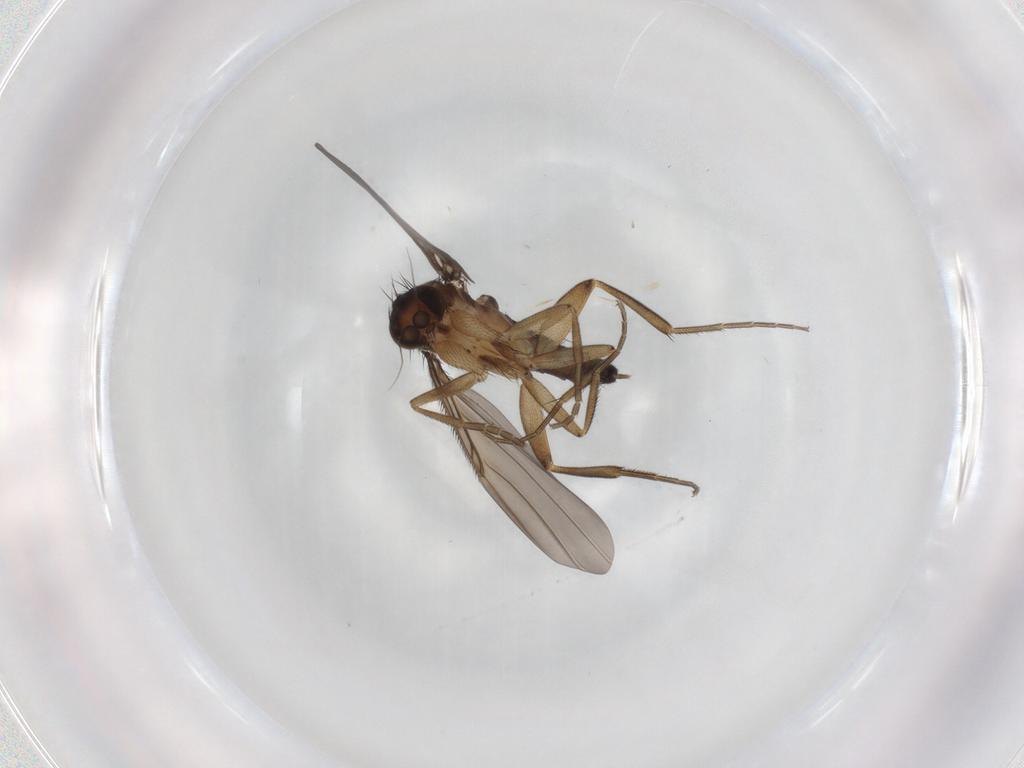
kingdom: Animalia
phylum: Arthropoda
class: Insecta
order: Diptera
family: Phoridae
